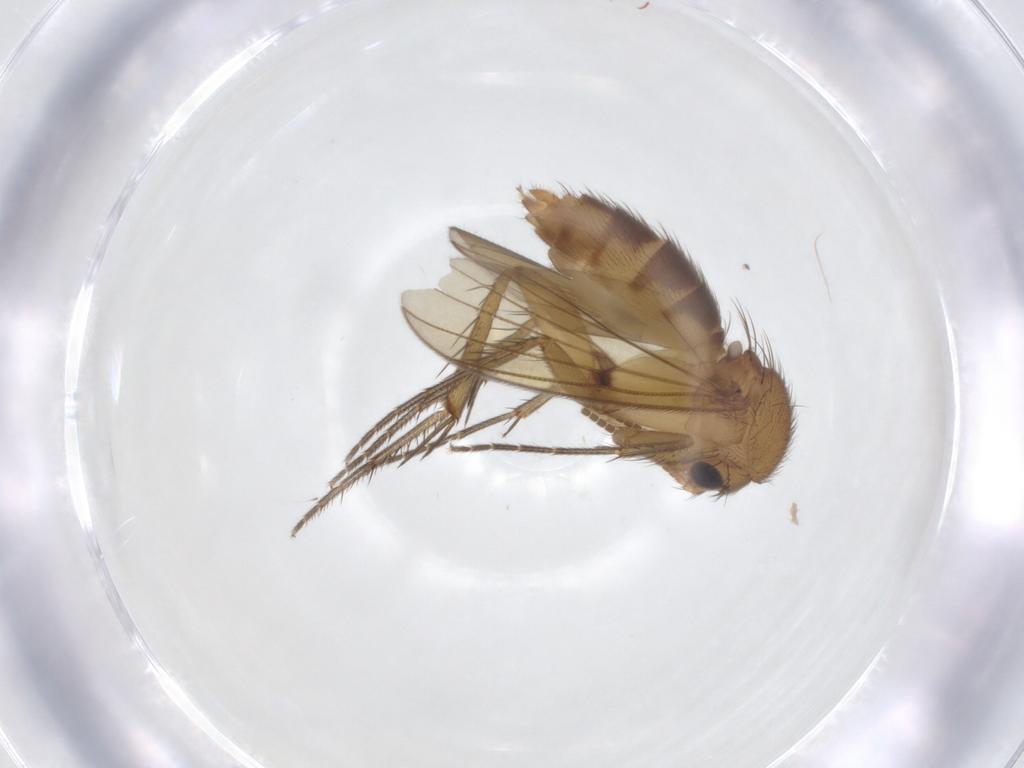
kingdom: Animalia
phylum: Arthropoda
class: Insecta
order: Diptera
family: Mycetophilidae
